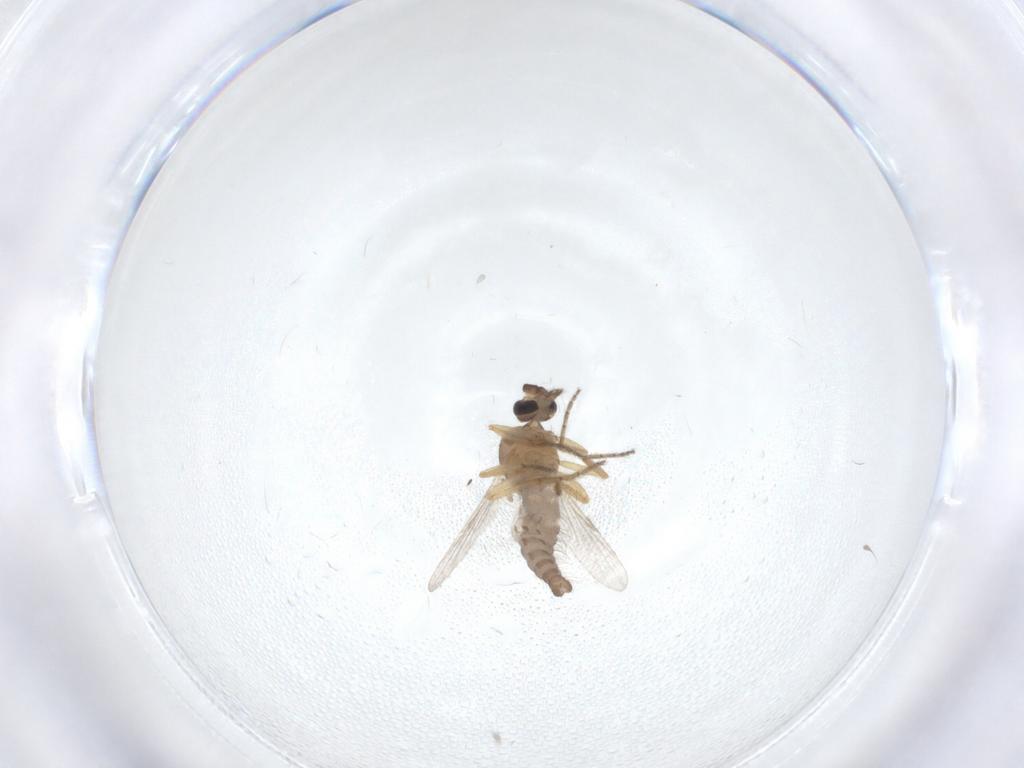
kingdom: Animalia
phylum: Arthropoda
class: Insecta
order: Diptera
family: Ceratopogonidae
